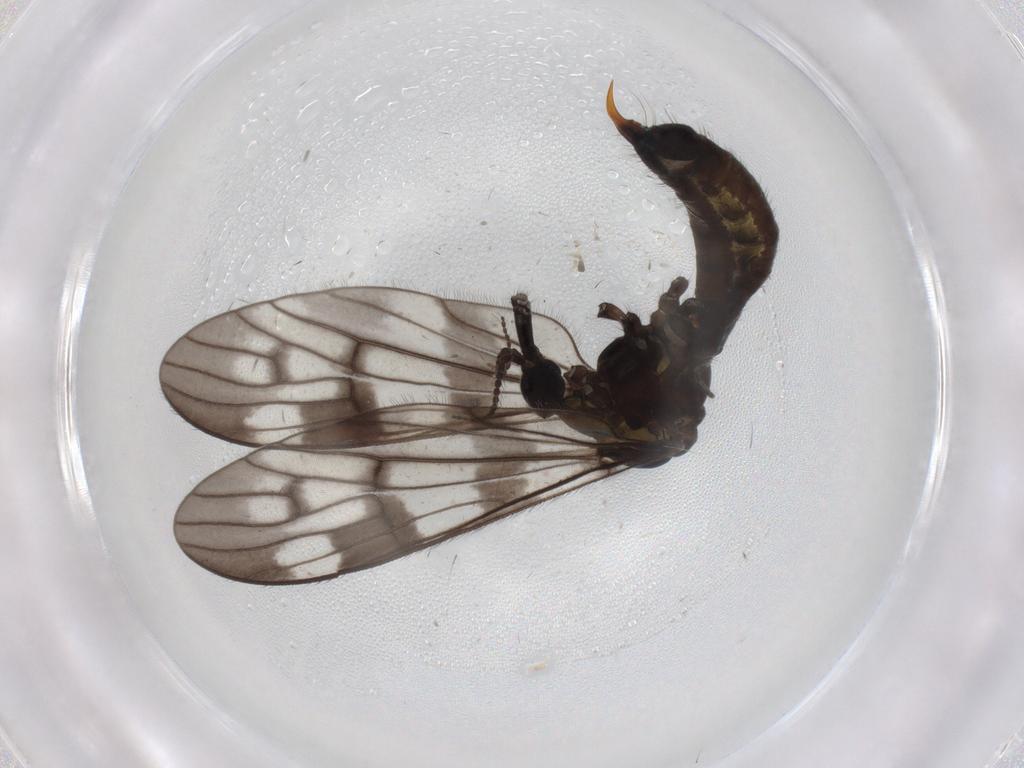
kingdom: Animalia
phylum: Arthropoda
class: Insecta
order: Diptera
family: Limoniidae
